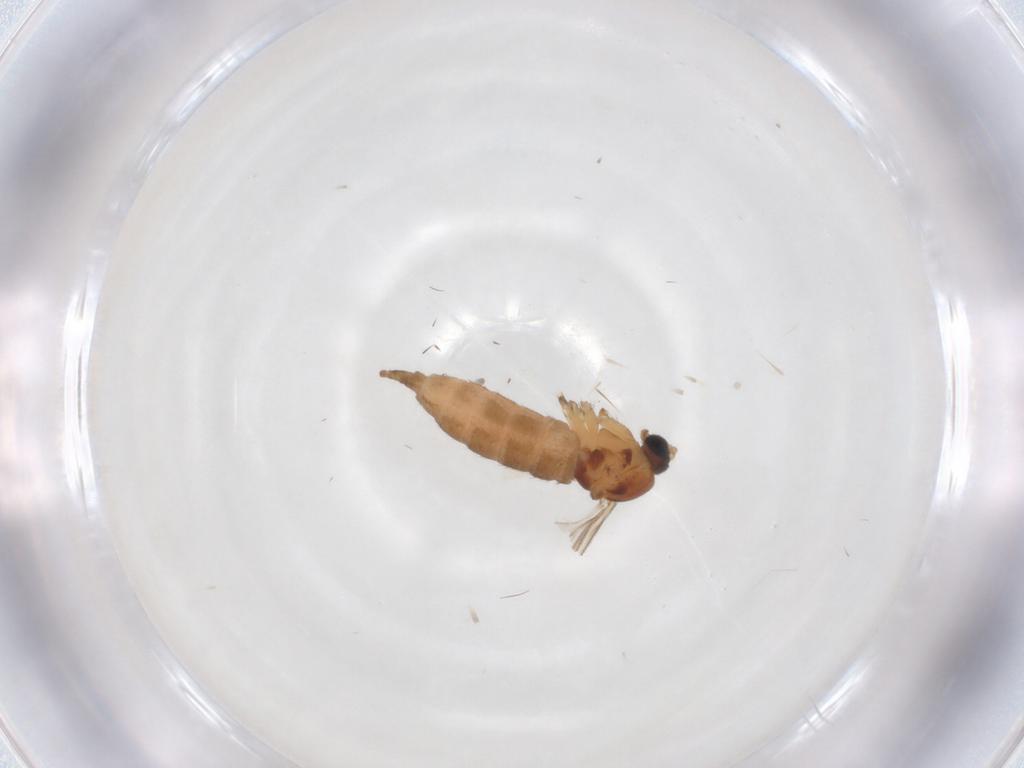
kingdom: Animalia
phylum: Arthropoda
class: Insecta
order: Diptera
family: Sciaridae
